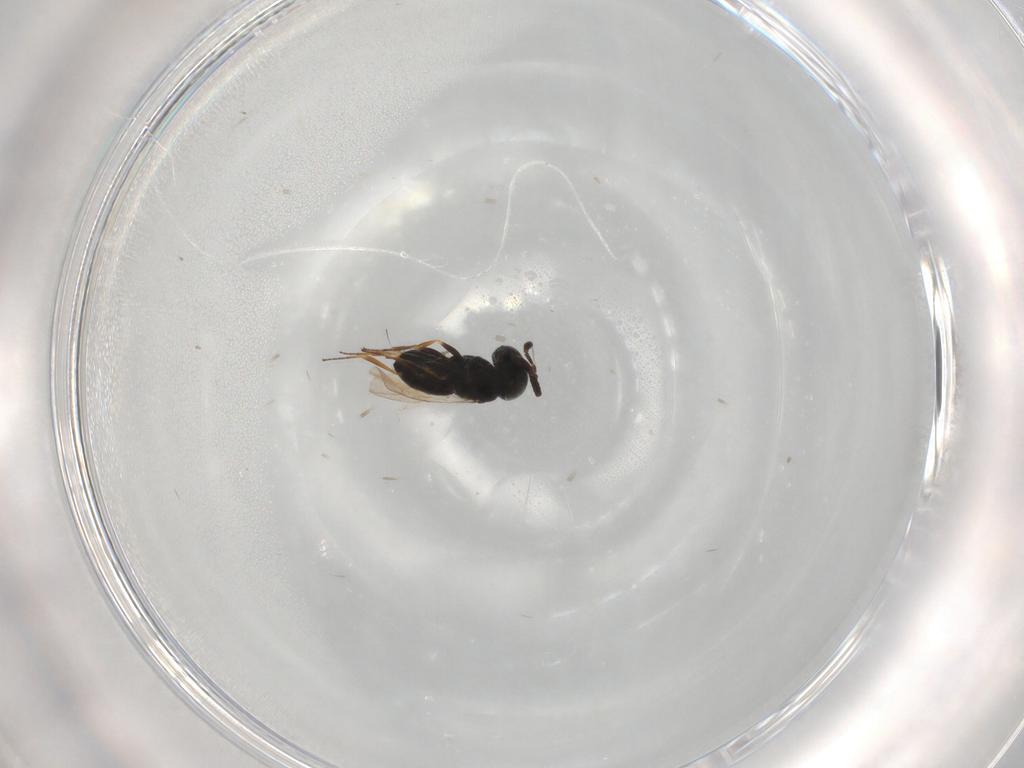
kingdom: Animalia
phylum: Arthropoda
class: Insecta
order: Hymenoptera
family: Scelionidae
